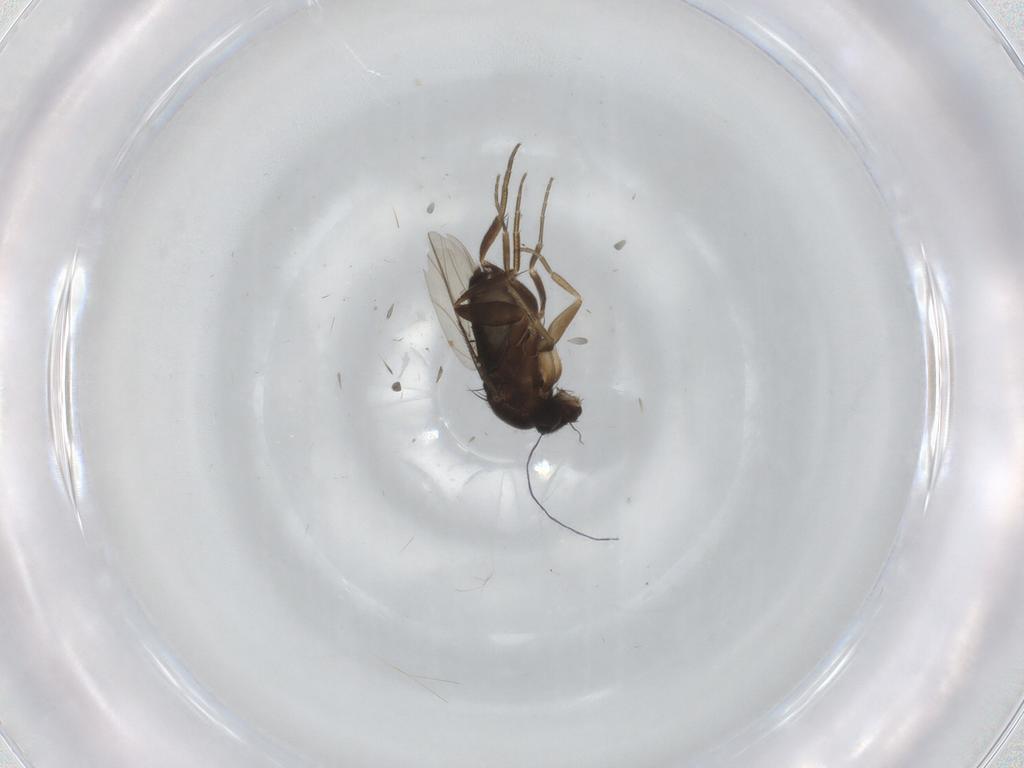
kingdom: Animalia
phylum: Arthropoda
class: Insecta
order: Diptera
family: Phoridae
